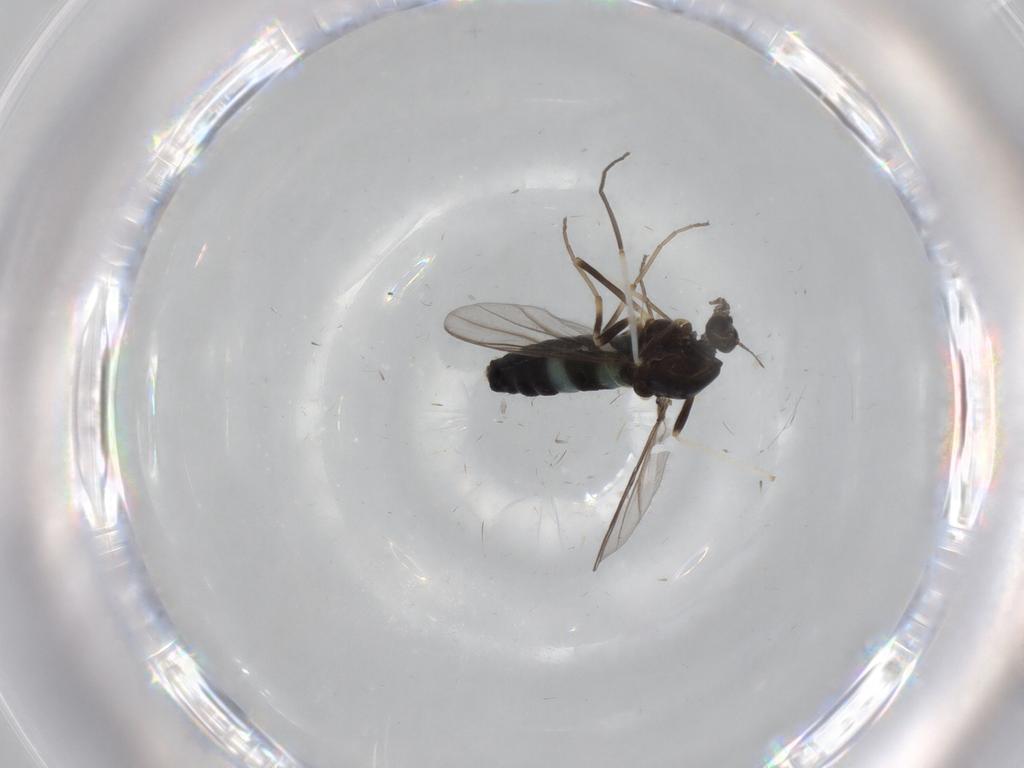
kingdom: Animalia
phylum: Arthropoda
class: Insecta
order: Diptera
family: Chironomidae
